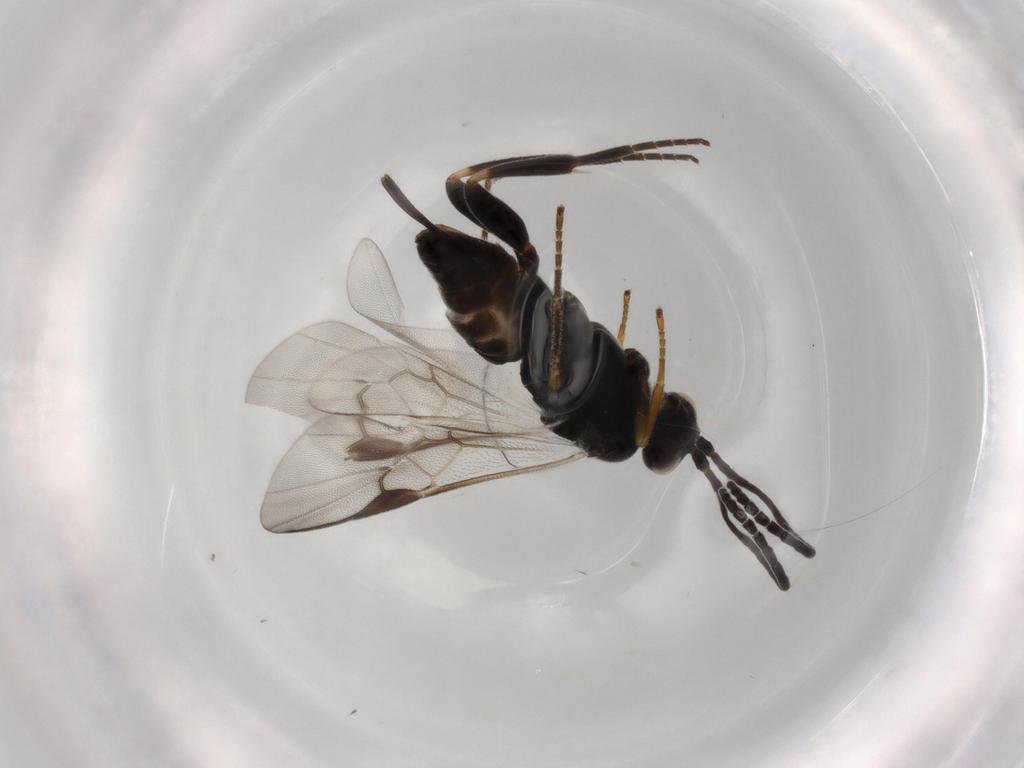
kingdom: Animalia
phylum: Arthropoda
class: Insecta
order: Hymenoptera
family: Braconidae
